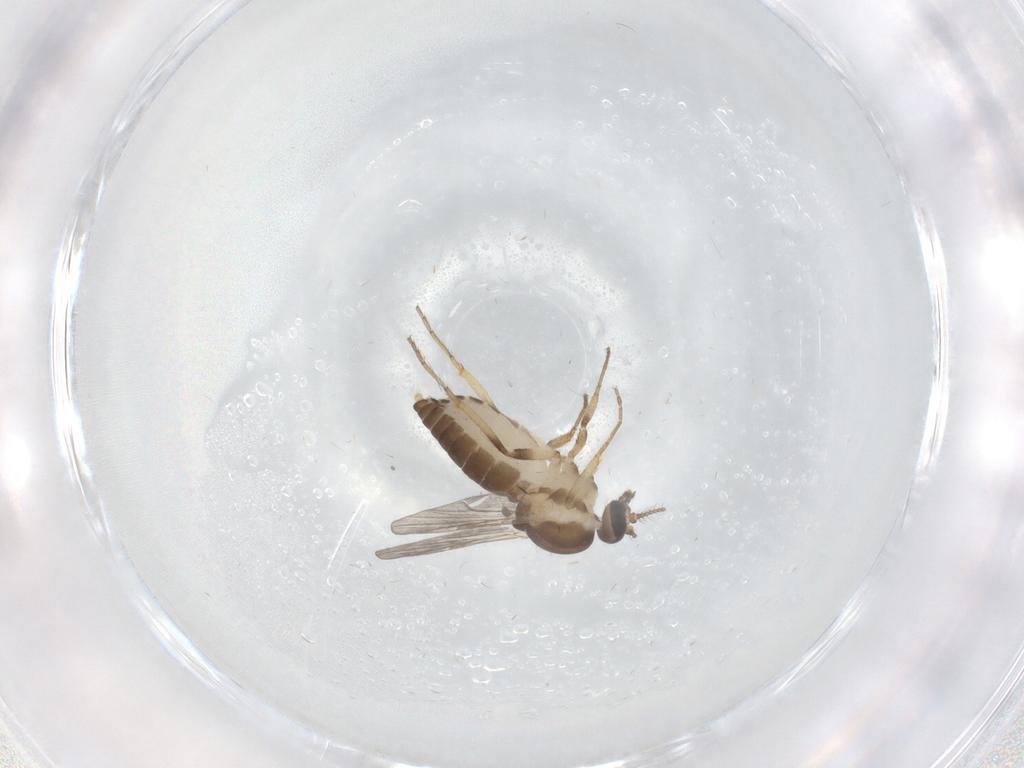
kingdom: Animalia
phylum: Arthropoda
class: Insecta
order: Diptera
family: Ceratopogonidae
